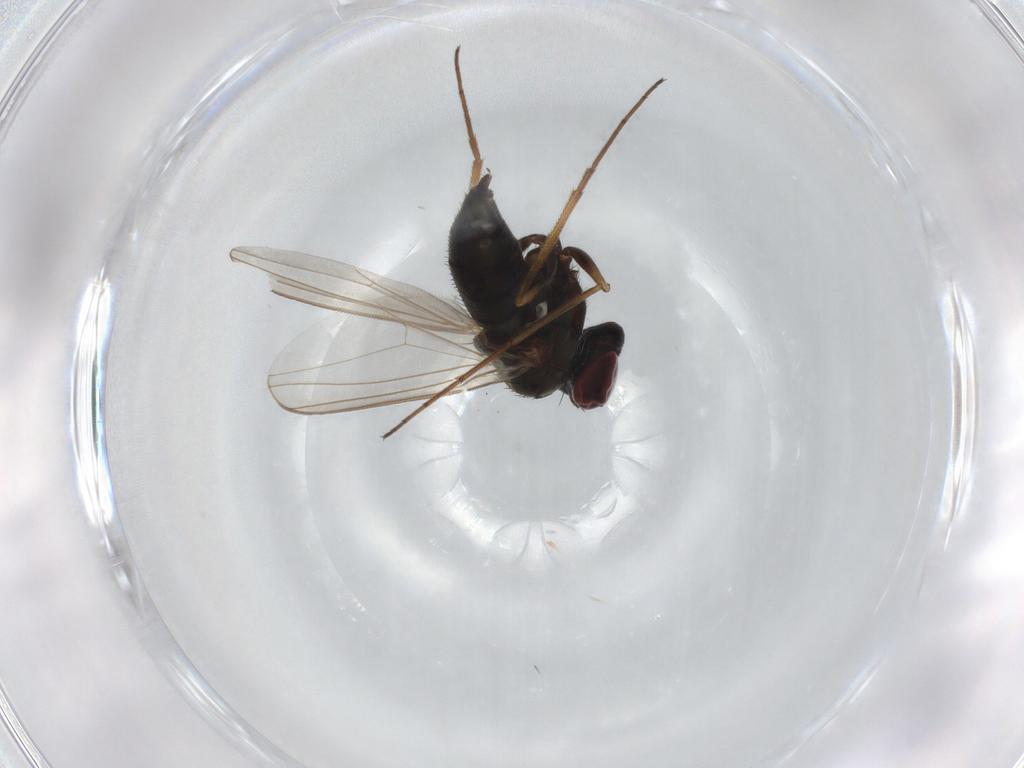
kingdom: Animalia
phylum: Arthropoda
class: Insecta
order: Diptera
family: Dolichopodidae
